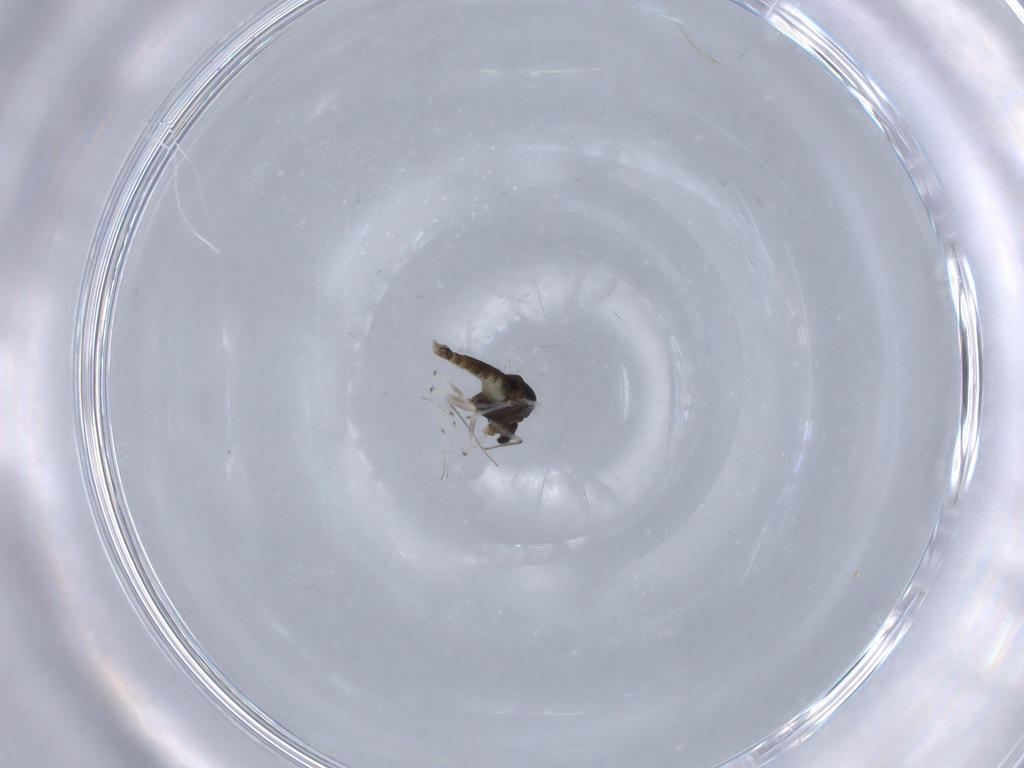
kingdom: Animalia
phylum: Arthropoda
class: Insecta
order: Diptera
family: Chironomidae
